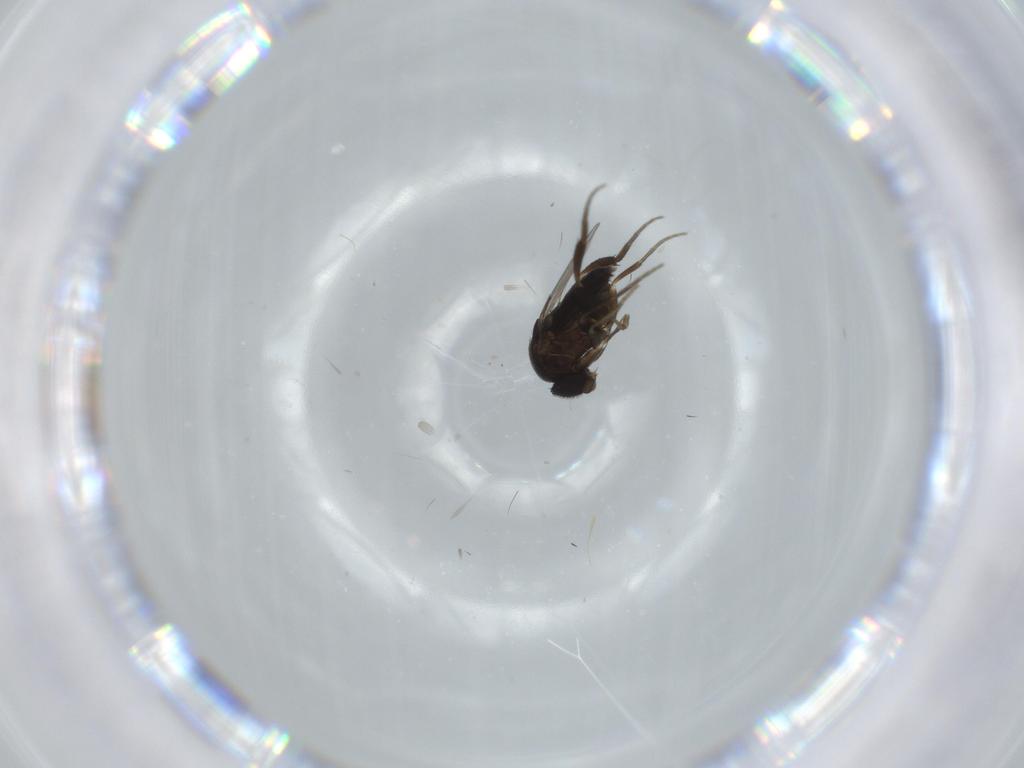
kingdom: Animalia
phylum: Arthropoda
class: Insecta
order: Diptera
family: Phoridae
